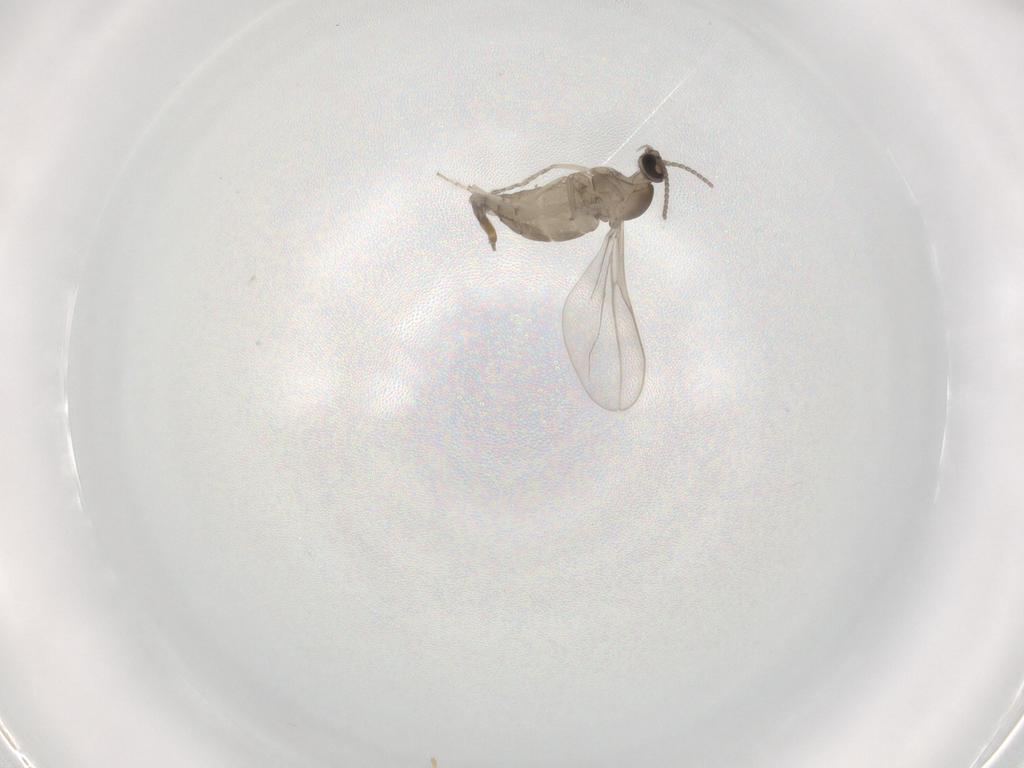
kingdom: Animalia
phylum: Arthropoda
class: Insecta
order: Diptera
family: Cecidomyiidae
